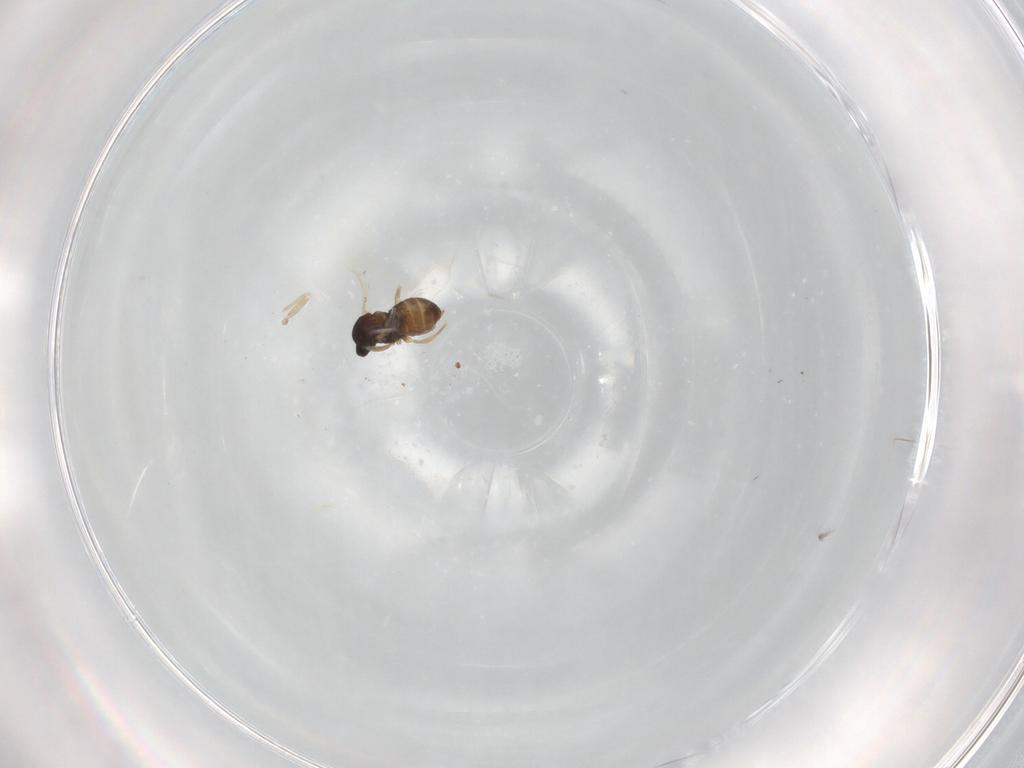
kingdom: Animalia
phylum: Arthropoda
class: Insecta
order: Diptera
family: Cecidomyiidae
